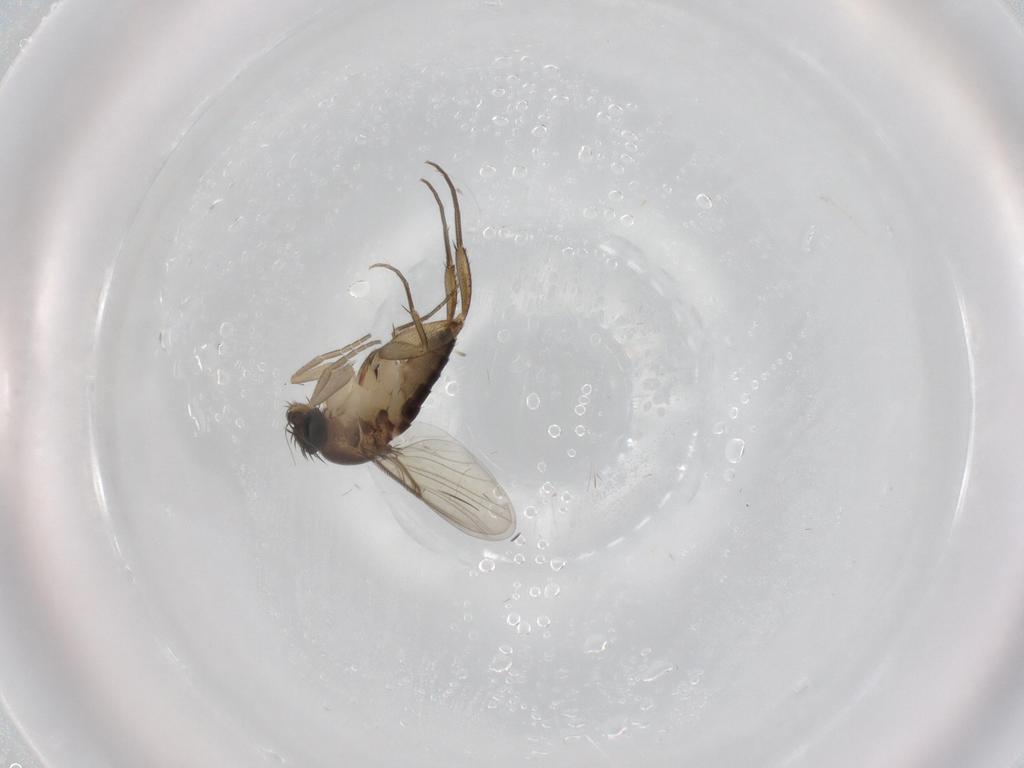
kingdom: Animalia
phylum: Arthropoda
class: Insecta
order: Diptera
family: Phoridae
